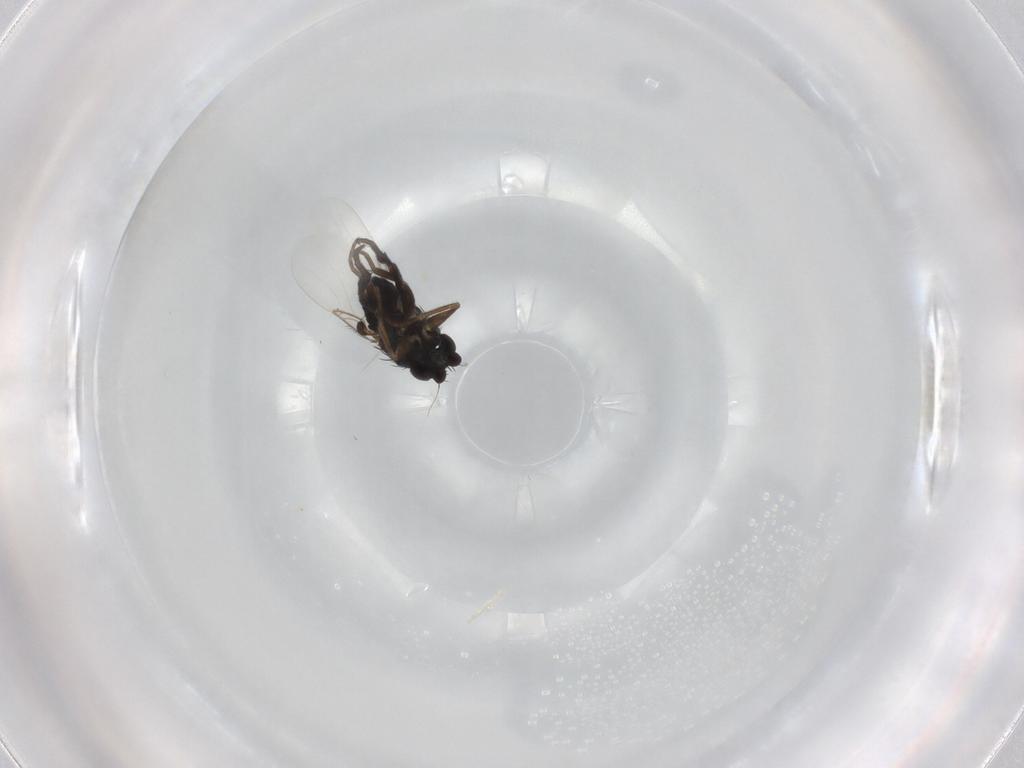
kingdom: Animalia
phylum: Arthropoda
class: Insecta
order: Diptera
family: Phoridae
